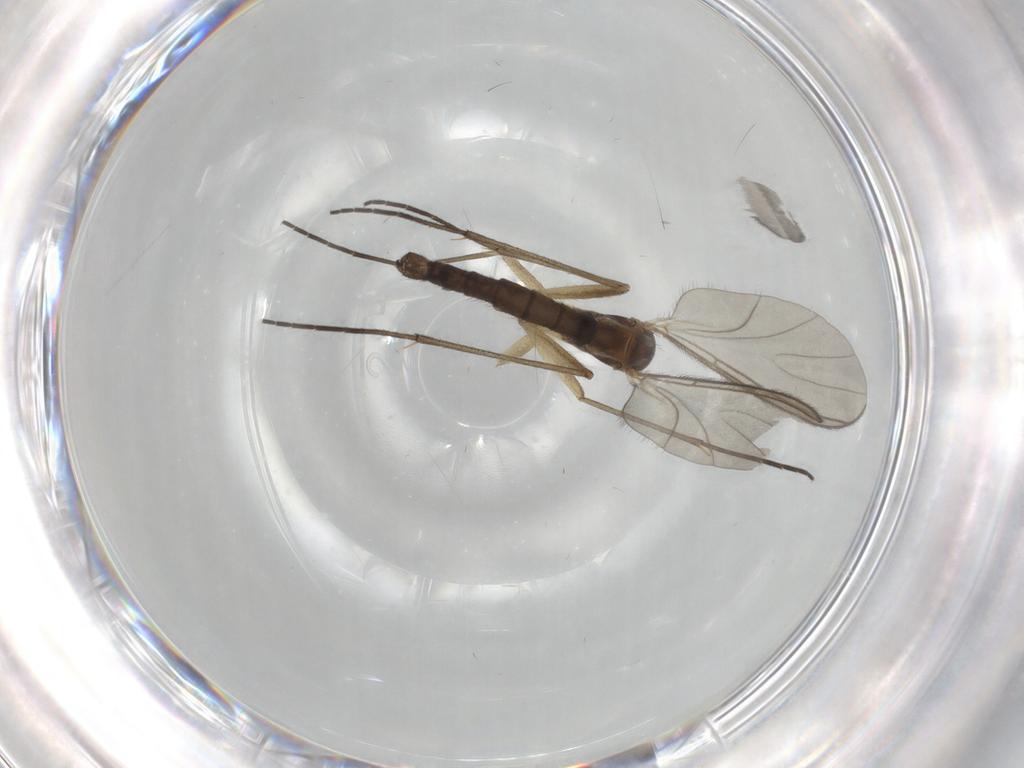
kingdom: Animalia
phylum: Arthropoda
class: Insecta
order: Diptera
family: Sciaridae
